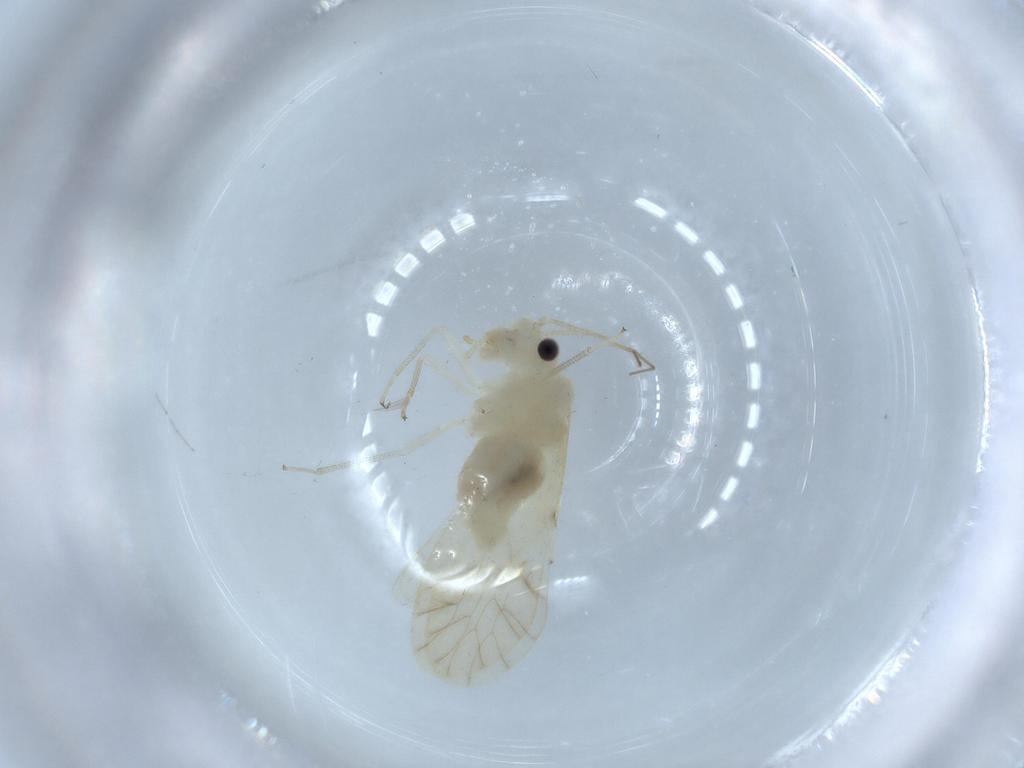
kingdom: Animalia
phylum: Arthropoda
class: Insecta
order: Psocodea
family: Caeciliusidae
